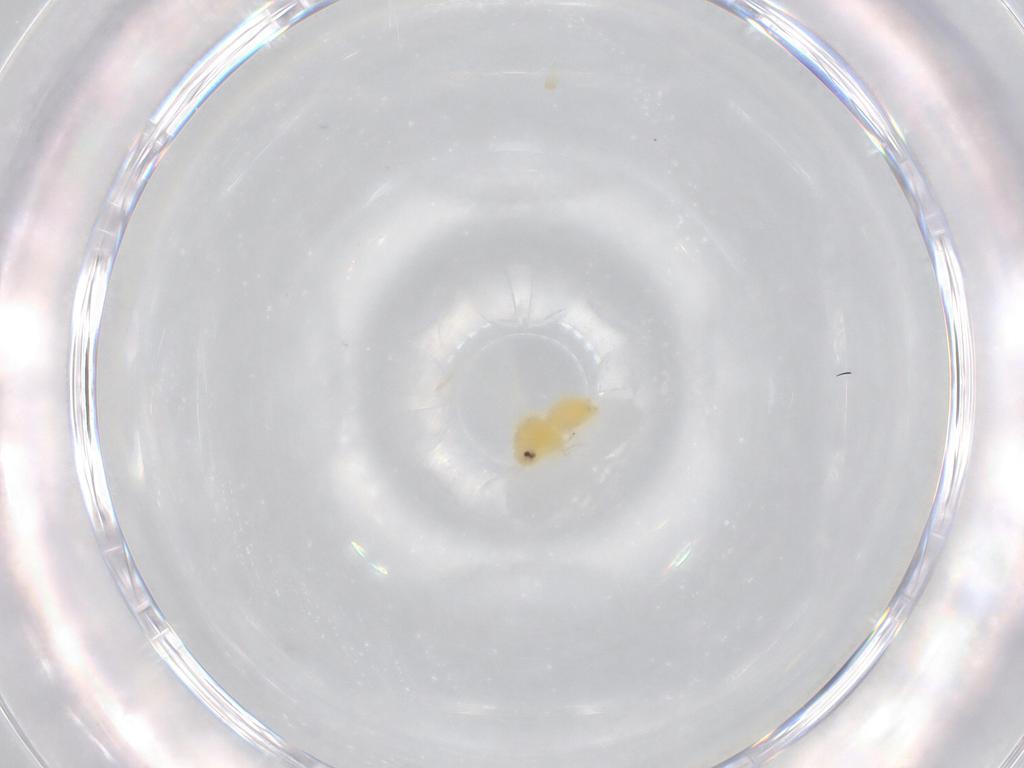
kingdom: Animalia
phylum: Arthropoda
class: Insecta
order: Hemiptera
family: Aleyrodidae
